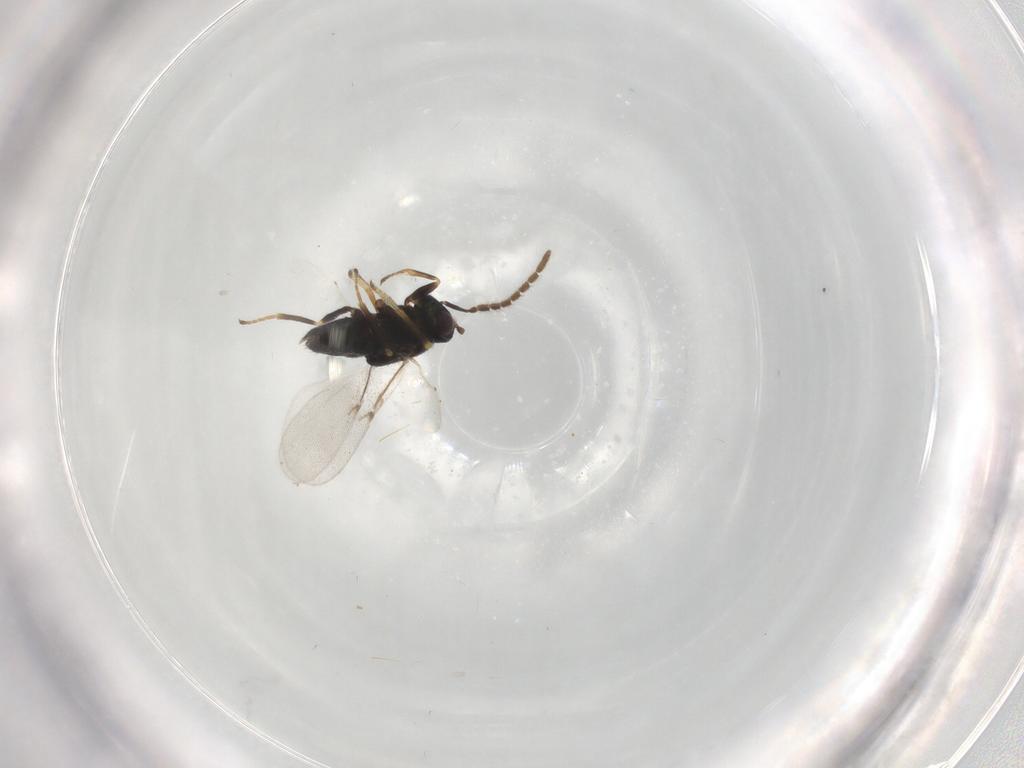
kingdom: Animalia
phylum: Arthropoda
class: Insecta
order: Hymenoptera
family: Encyrtidae
